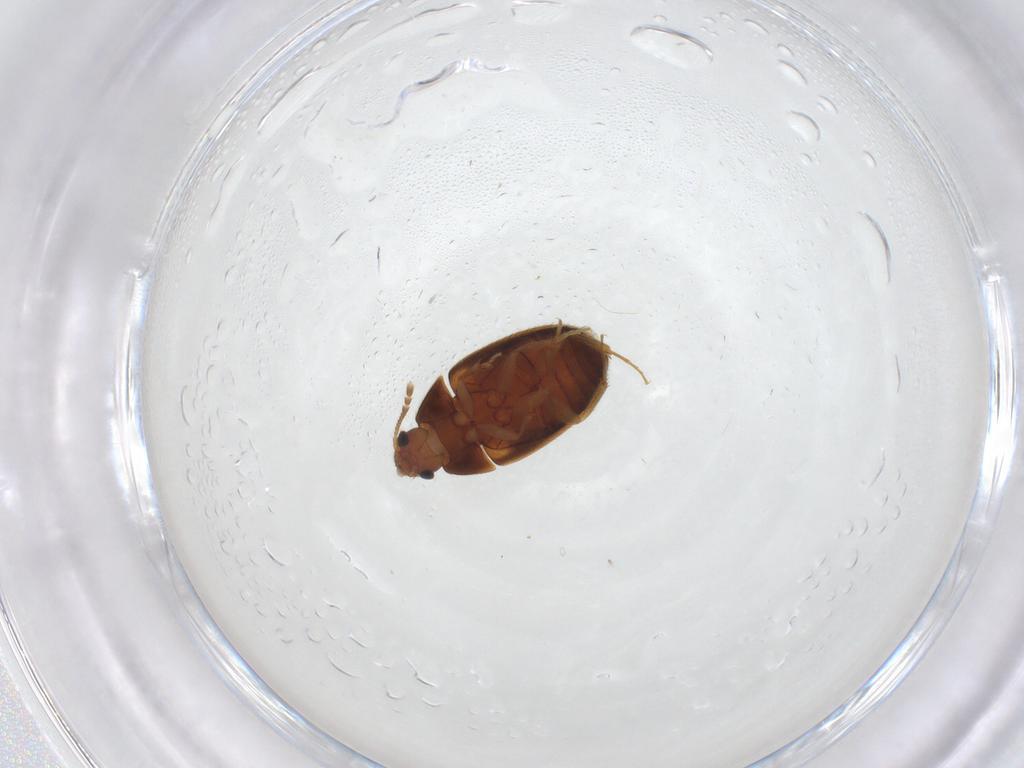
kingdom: Animalia
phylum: Arthropoda
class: Insecta
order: Coleoptera
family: Mycetophagidae
